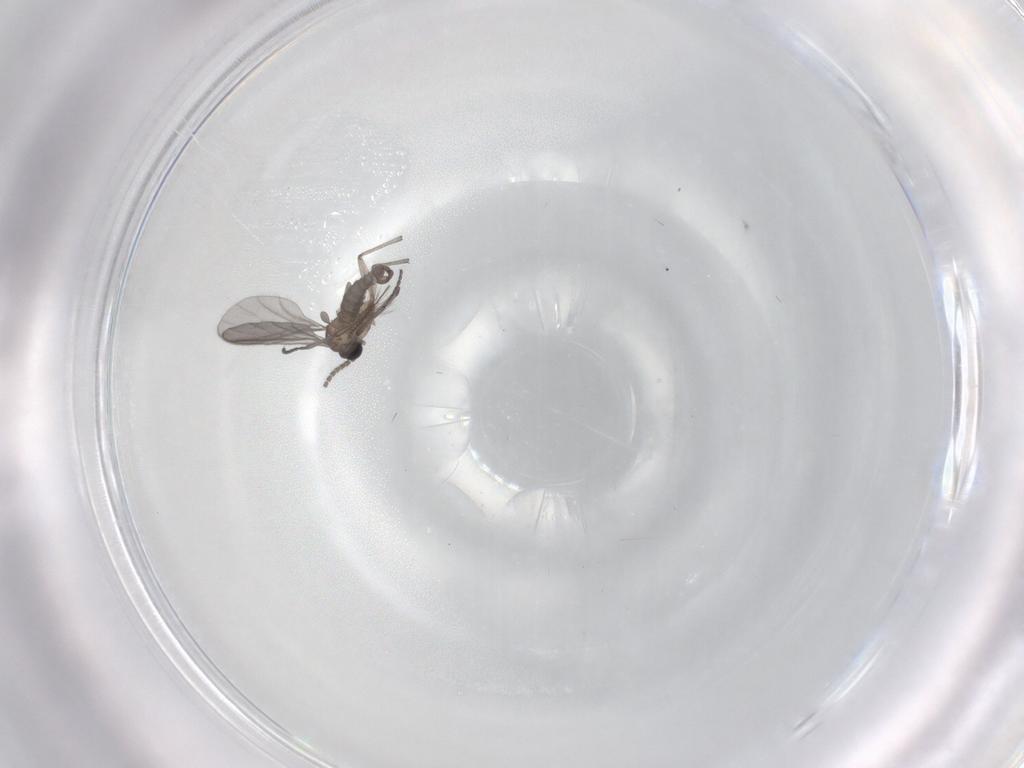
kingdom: Animalia
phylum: Arthropoda
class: Insecta
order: Diptera
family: Sciaridae
